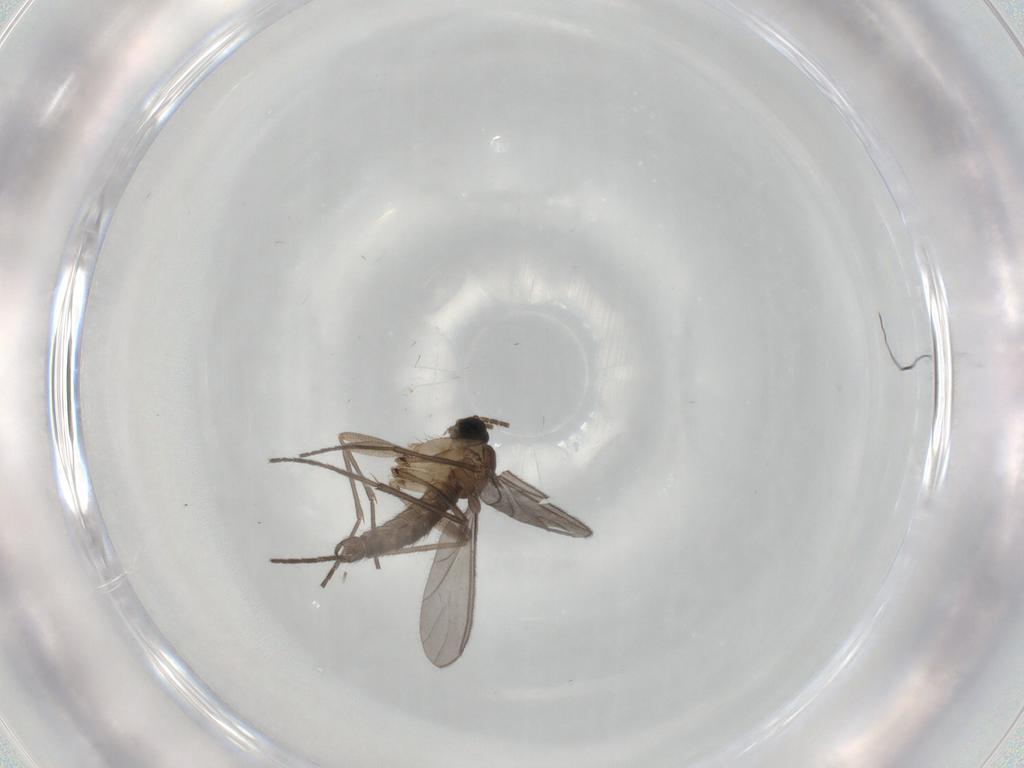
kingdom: Animalia
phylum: Arthropoda
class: Insecta
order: Diptera
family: Sciaridae
